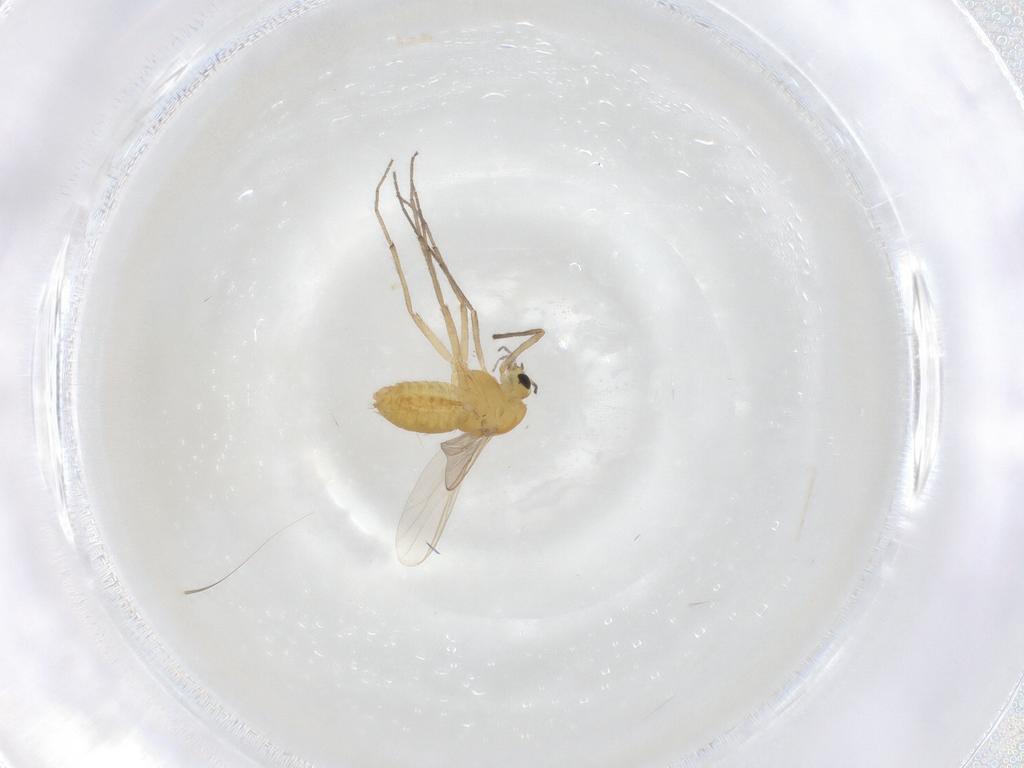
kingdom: Animalia
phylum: Arthropoda
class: Insecta
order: Diptera
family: Chironomidae
